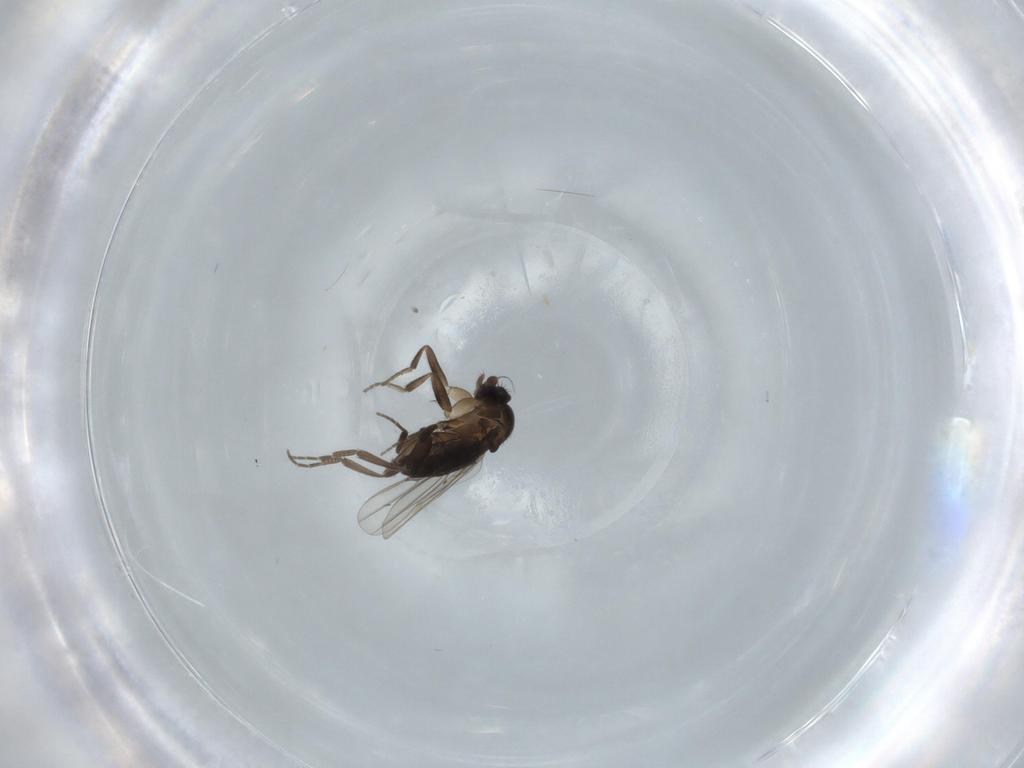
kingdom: Animalia
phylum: Arthropoda
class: Insecta
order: Diptera
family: Phoridae
